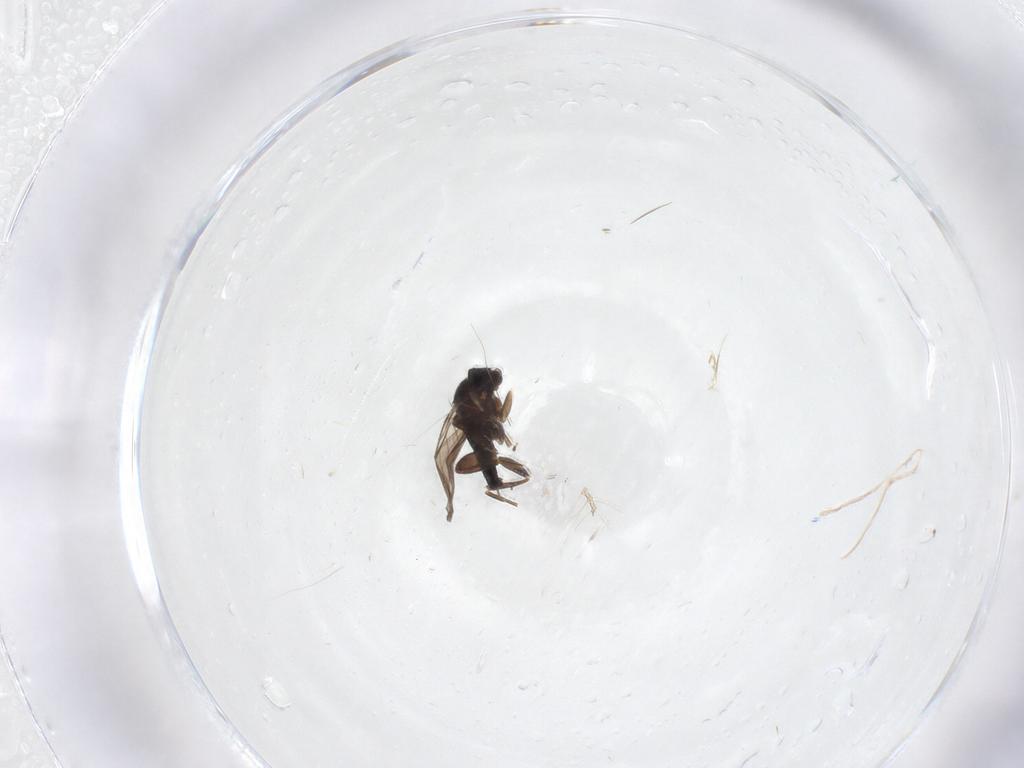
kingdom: Animalia
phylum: Arthropoda
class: Insecta
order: Diptera
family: Chironomidae
